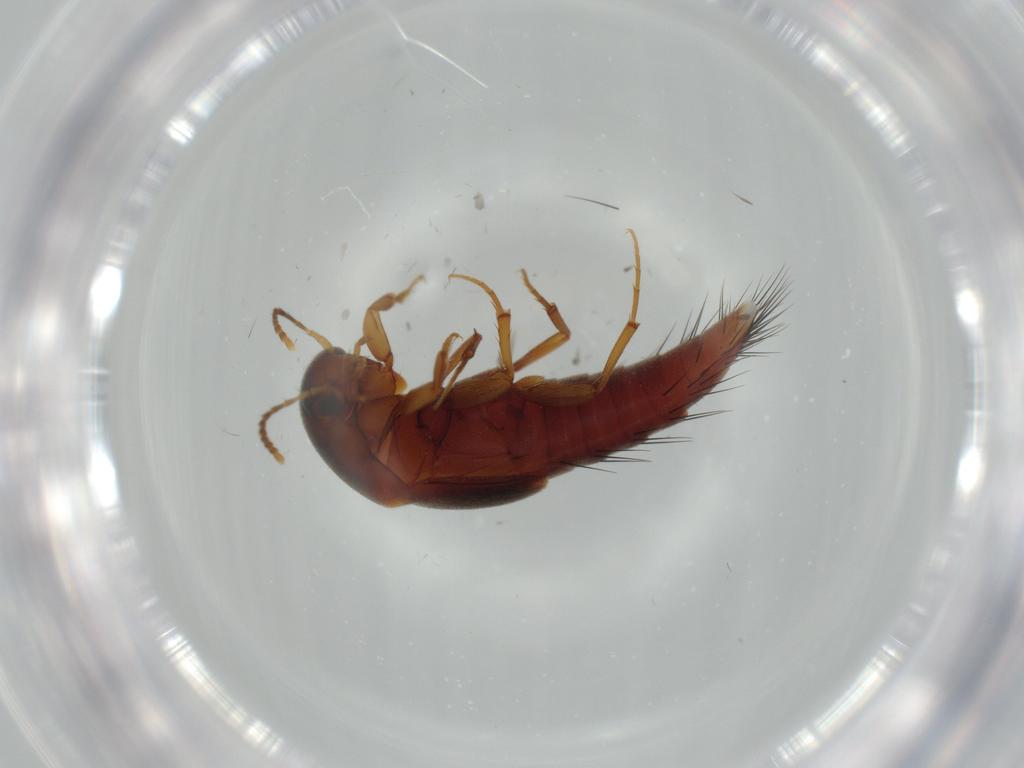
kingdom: Animalia
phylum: Arthropoda
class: Insecta
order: Coleoptera
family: Staphylinidae
